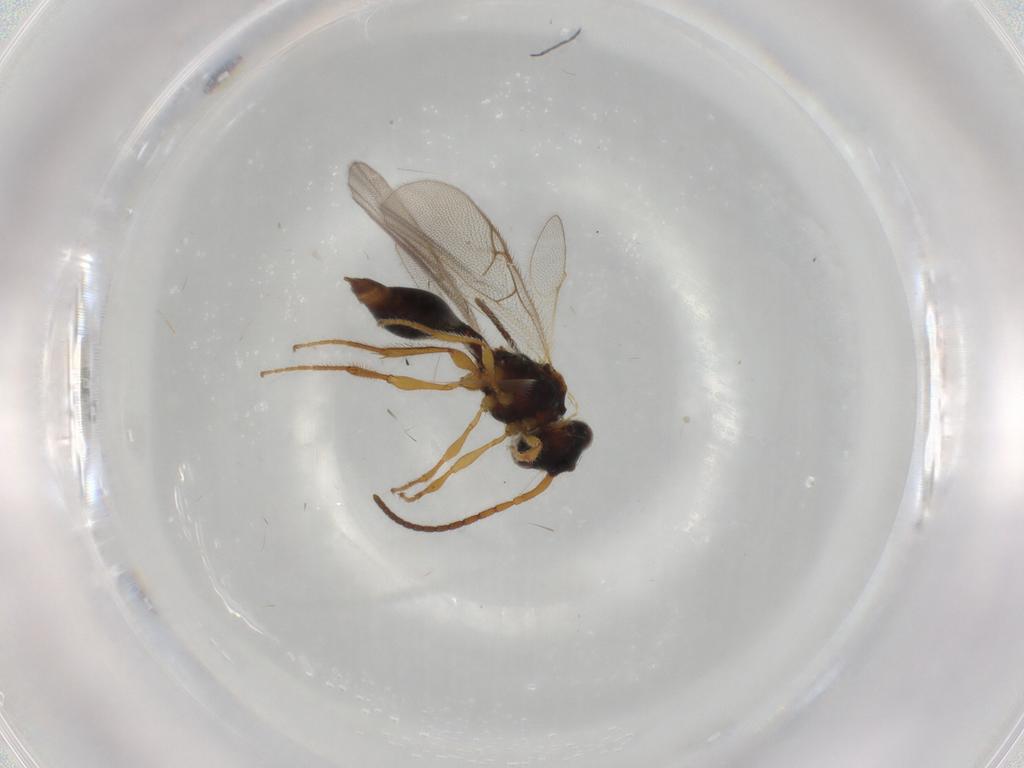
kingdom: Animalia
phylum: Arthropoda
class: Insecta
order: Hymenoptera
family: Diapriidae
